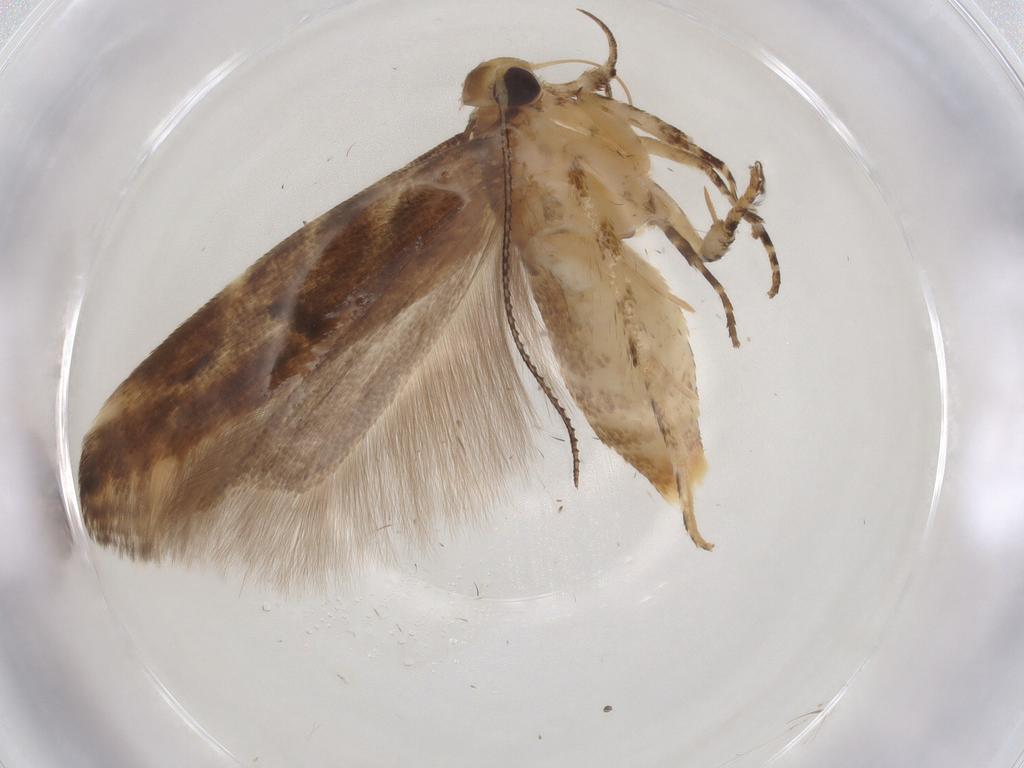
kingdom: Animalia
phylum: Arthropoda
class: Insecta
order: Lepidoptera
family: Gelechiidae
